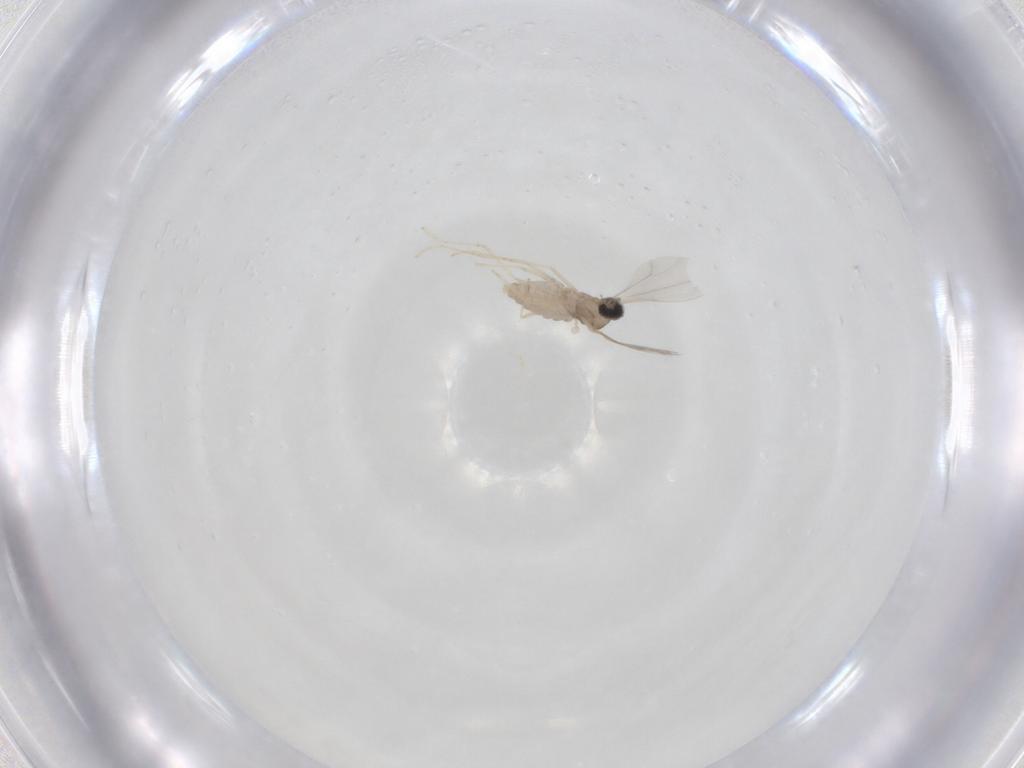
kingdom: Animalia
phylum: Arthropoda
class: Insecta
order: Diptera
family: Cecidomyiidae
